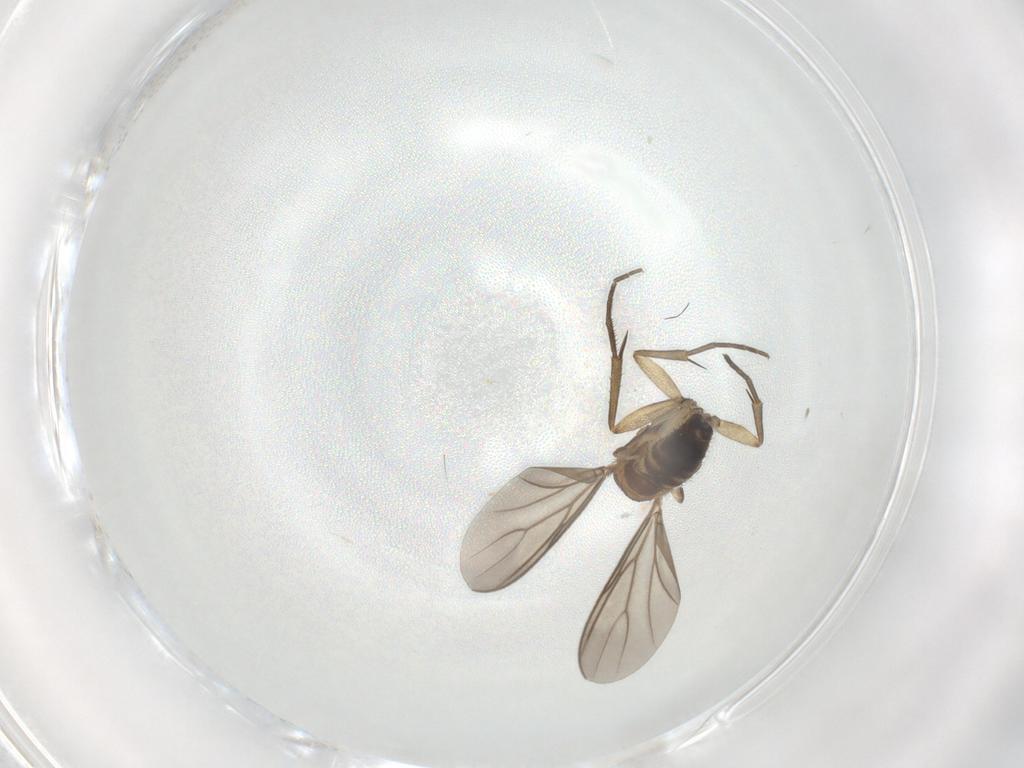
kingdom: Animalia
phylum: Arthropoda
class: Insecta
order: Diptera
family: Mycetophilidae
